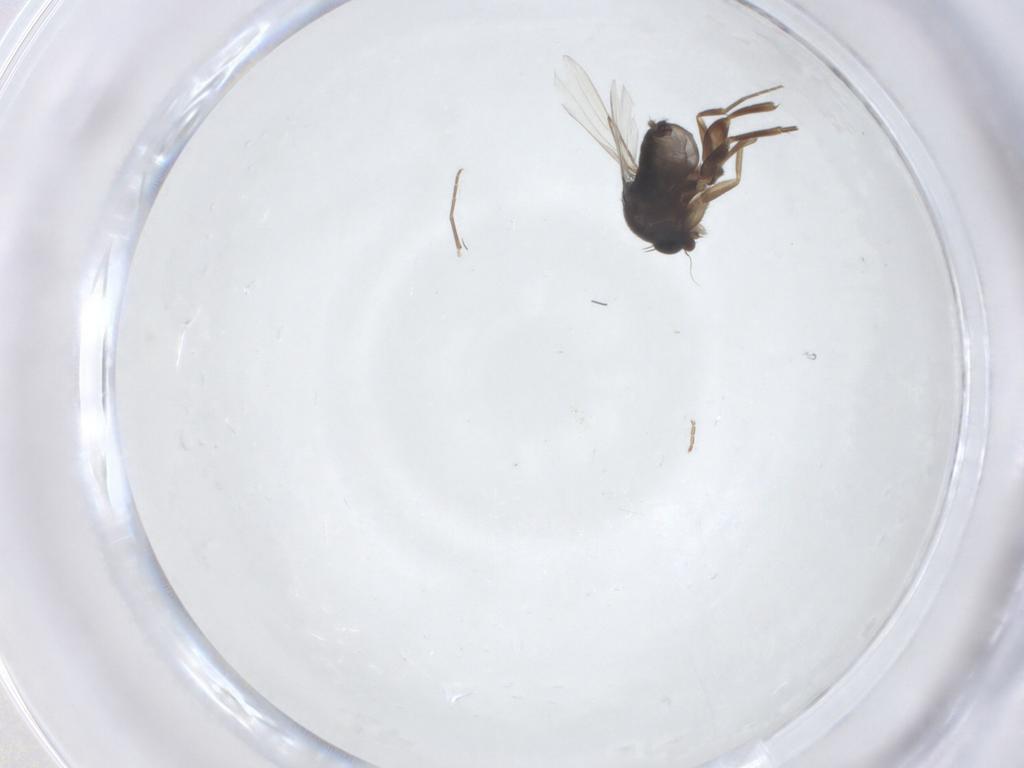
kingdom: Animalia
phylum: Arthropoda
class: Insecta
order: Diptera
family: Phoridae
